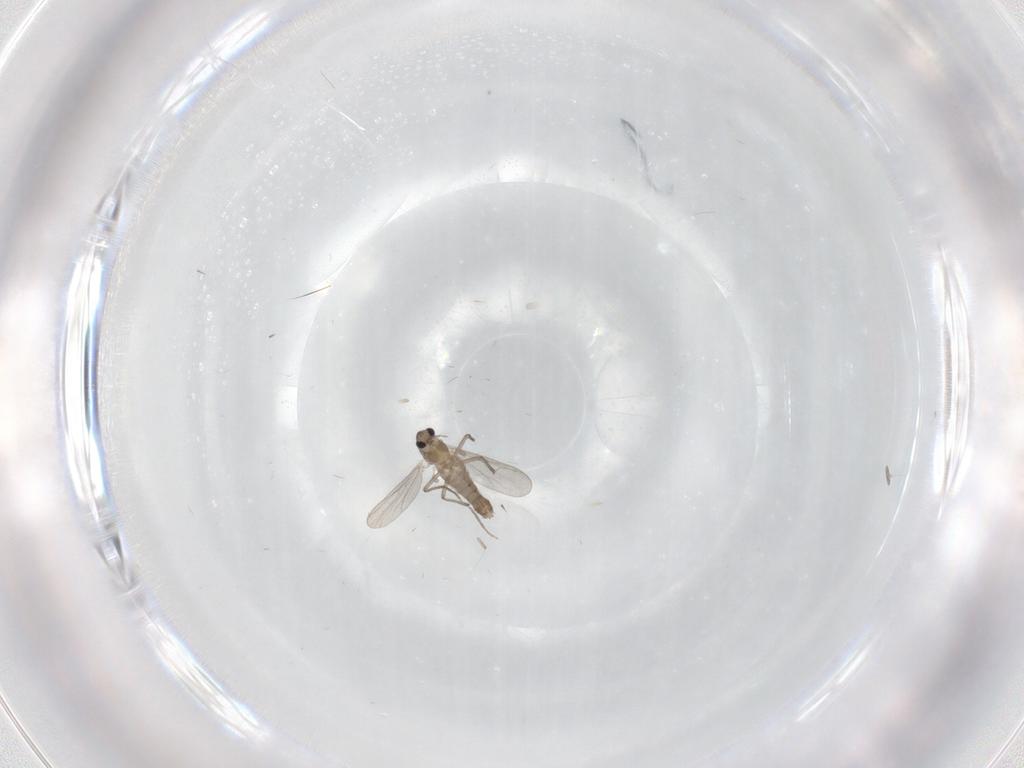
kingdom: Animalia
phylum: Arthropoda
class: Insecta
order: Diptera
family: Chironomidae
